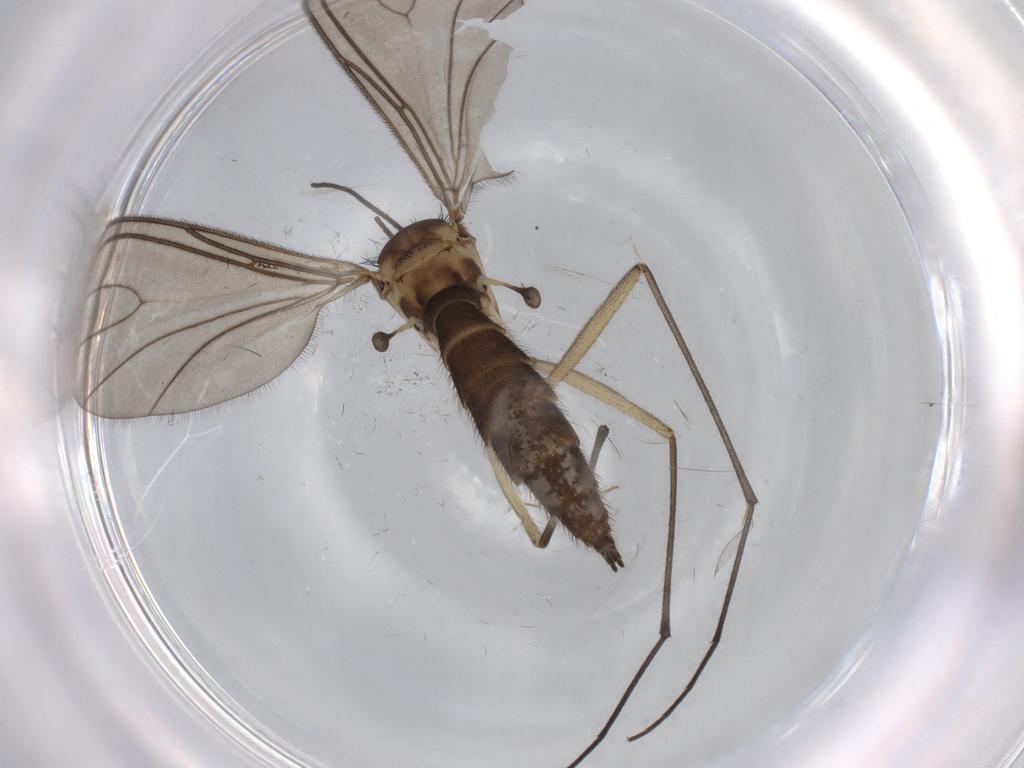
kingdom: Animalia
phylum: Arthropoda
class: Insecta
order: Diptera
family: Sciaridae
